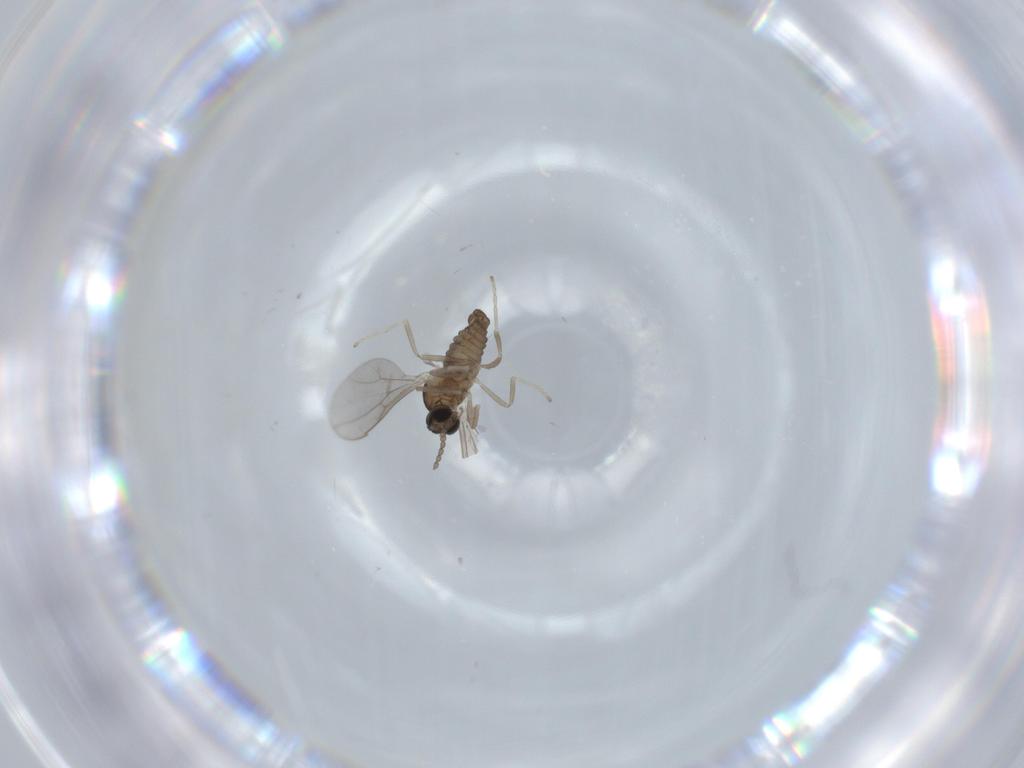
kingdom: Animalia
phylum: Arthropoda
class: Insecta
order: Diptera
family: Cecidomyiidae
